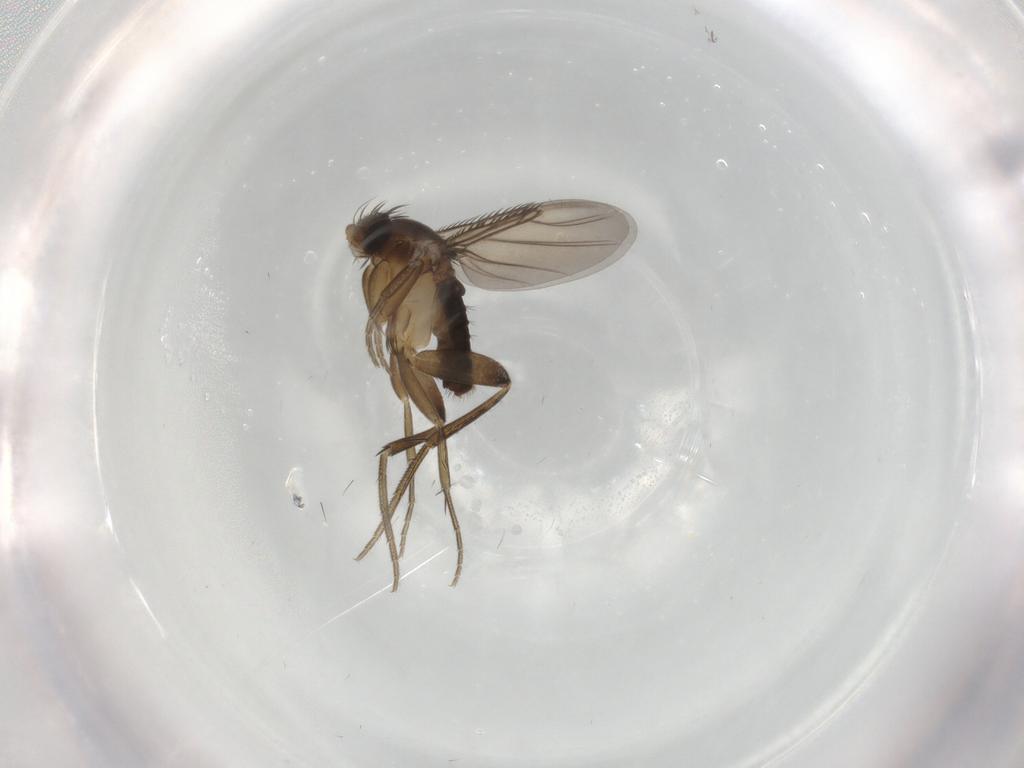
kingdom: Animalia
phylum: Arthropoda
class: Insecta
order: Diptera
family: Phoridae
